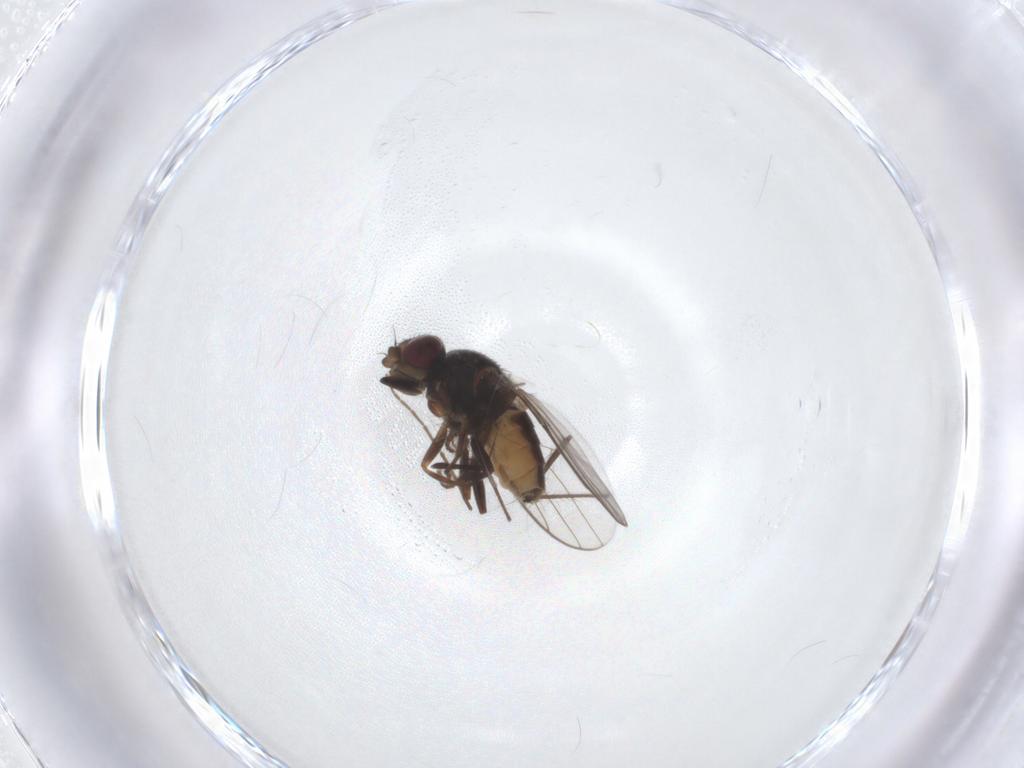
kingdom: Animalia
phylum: Arthropoda
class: Insecta
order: Diptera
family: Chloropidae
